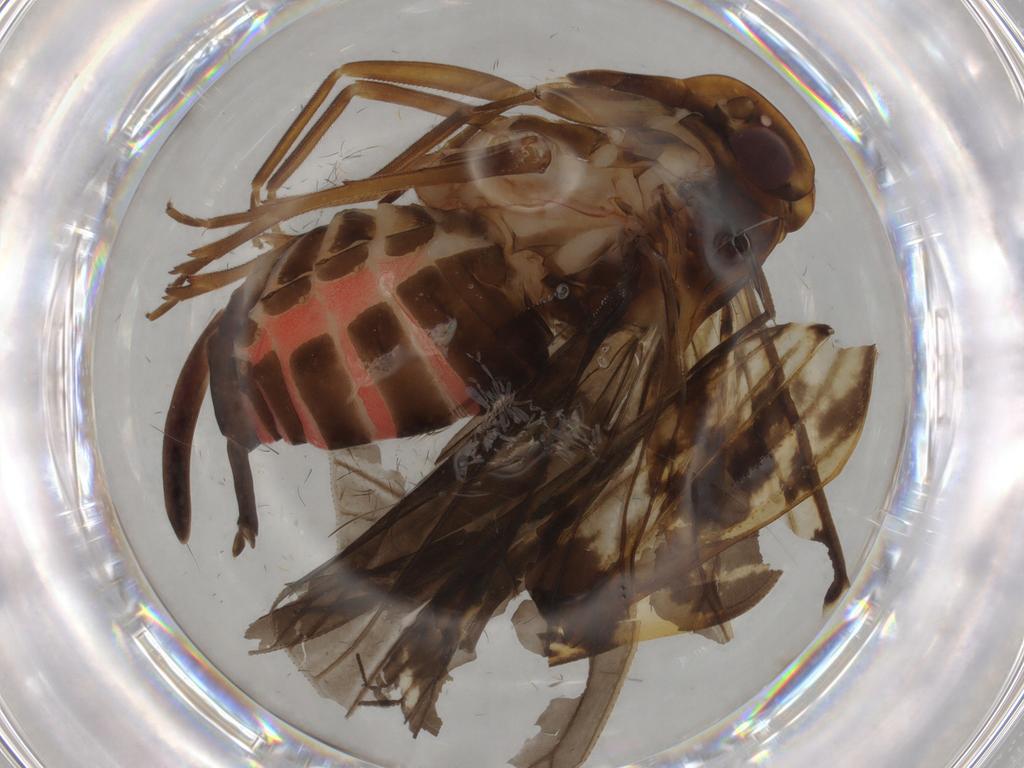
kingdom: Animalia
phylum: Arthropoda
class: Insecta
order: Hemiptera
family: Cixiidae
